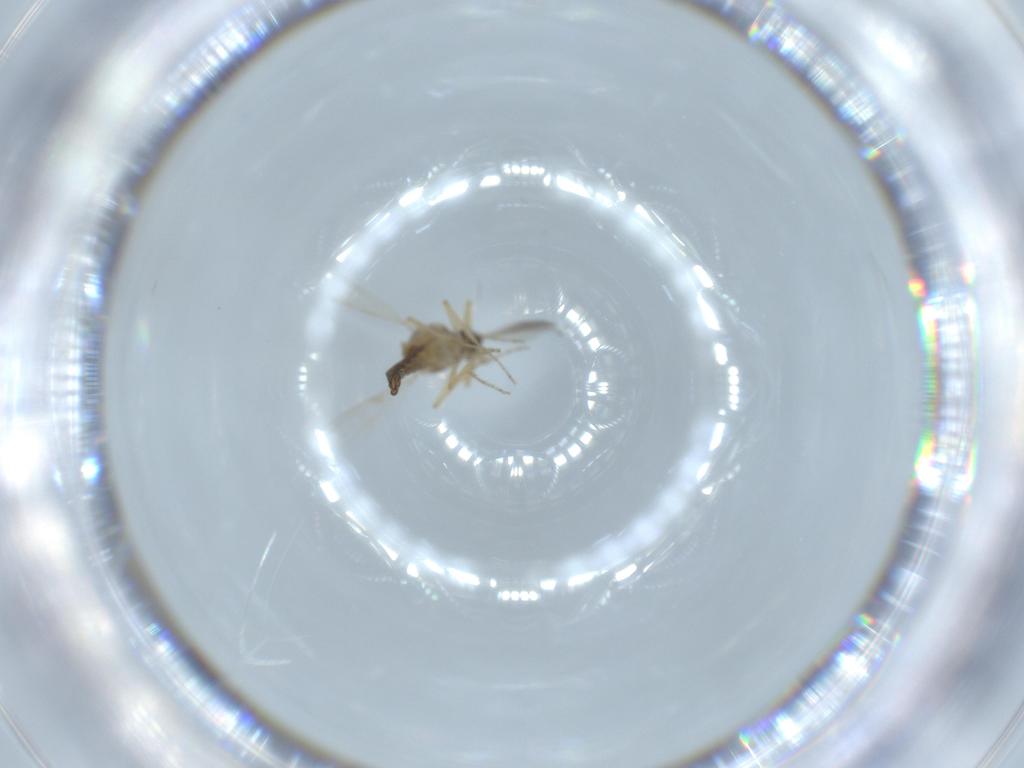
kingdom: Animalia
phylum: Arthropoda
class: Insecta
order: Diptera
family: Ceratopogonidae
